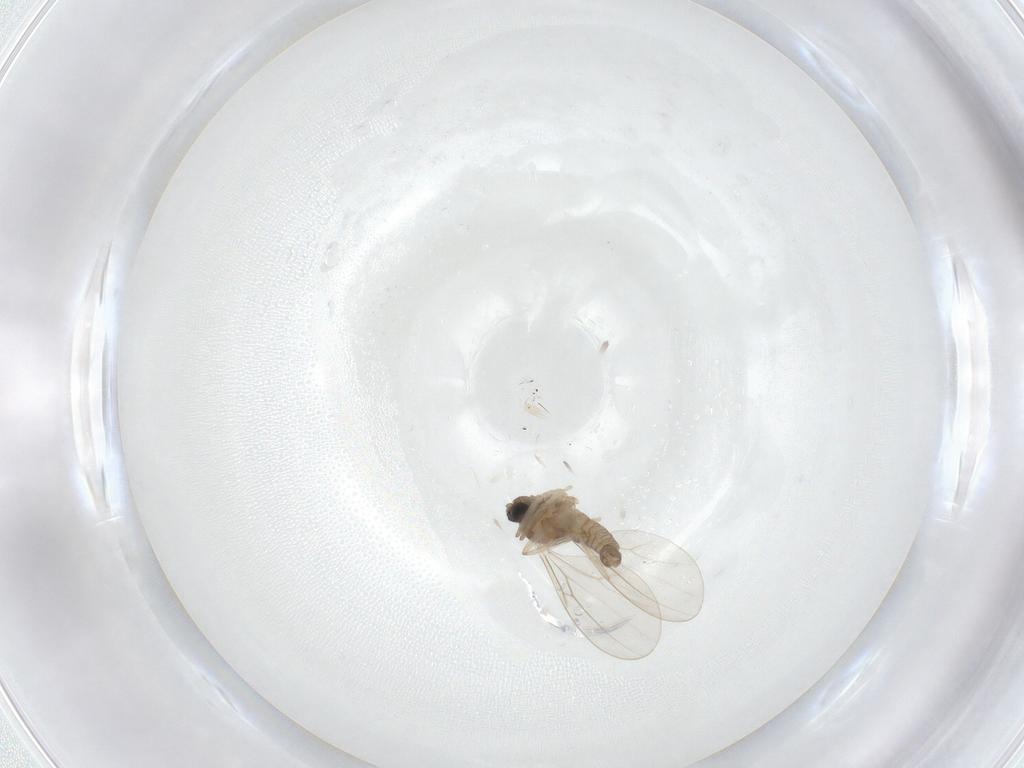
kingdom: Animalia
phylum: Arthropoda
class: Insecta
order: Diptera
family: Cecidomyiidae
